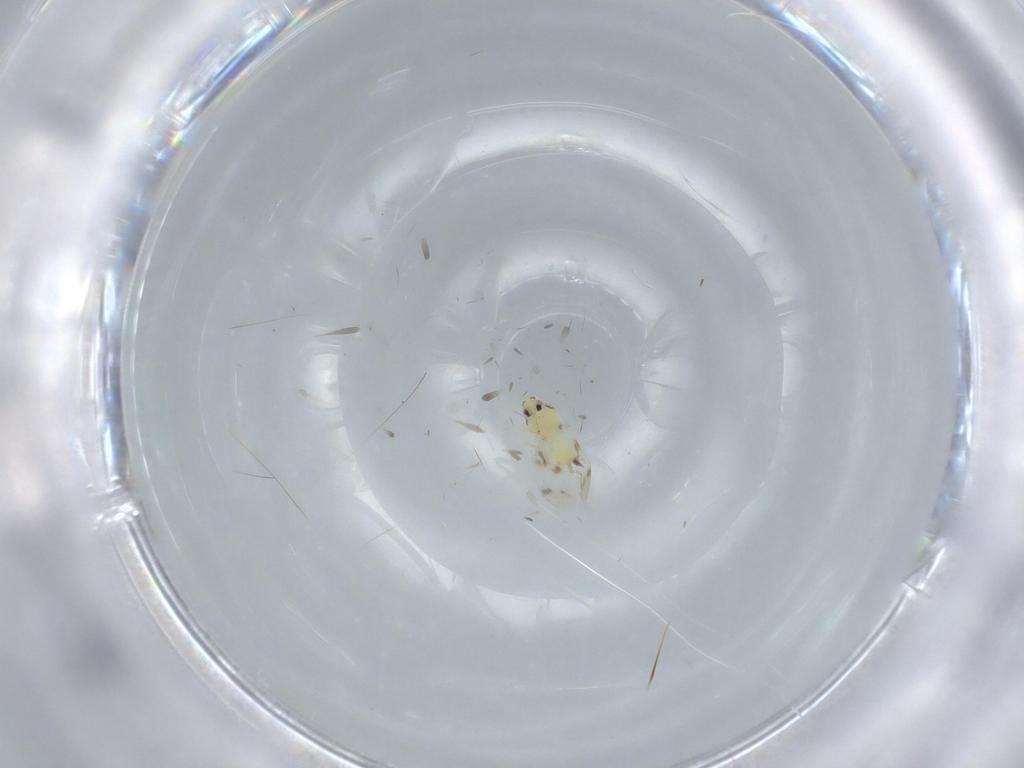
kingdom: Animalia
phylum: Arthropoda
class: Insecta
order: Hemiptera
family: Aleyrodidae
